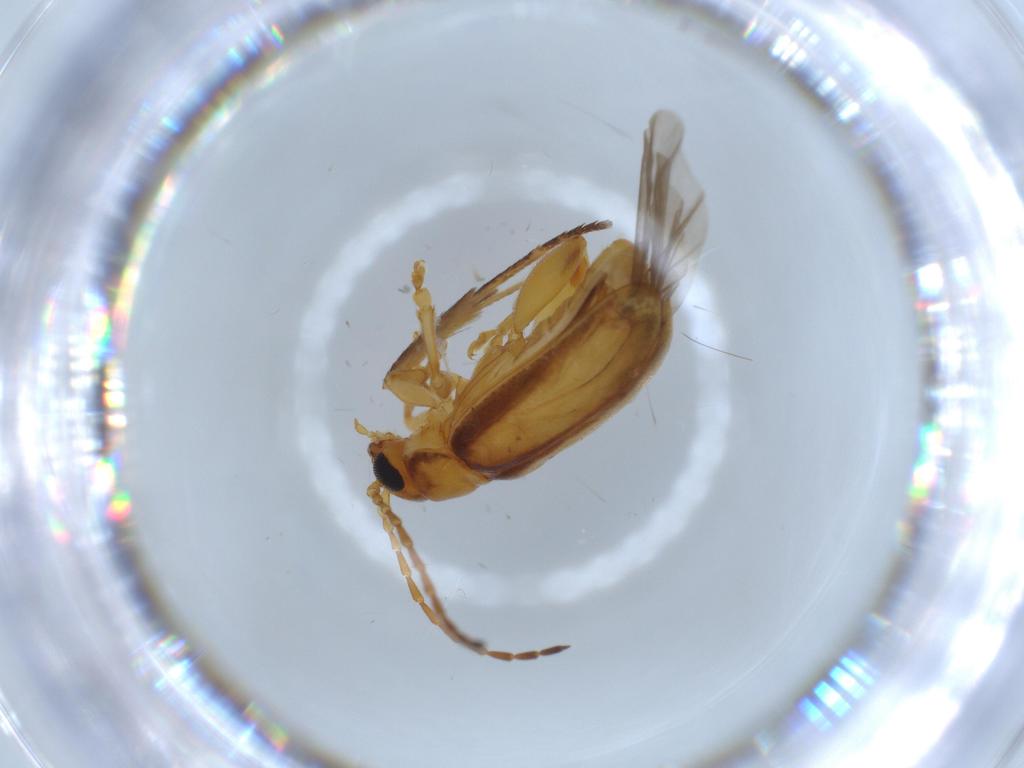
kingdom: Animalia
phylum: Arthropoda
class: Insecta
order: Coleoptera
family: Chrysomelidae
